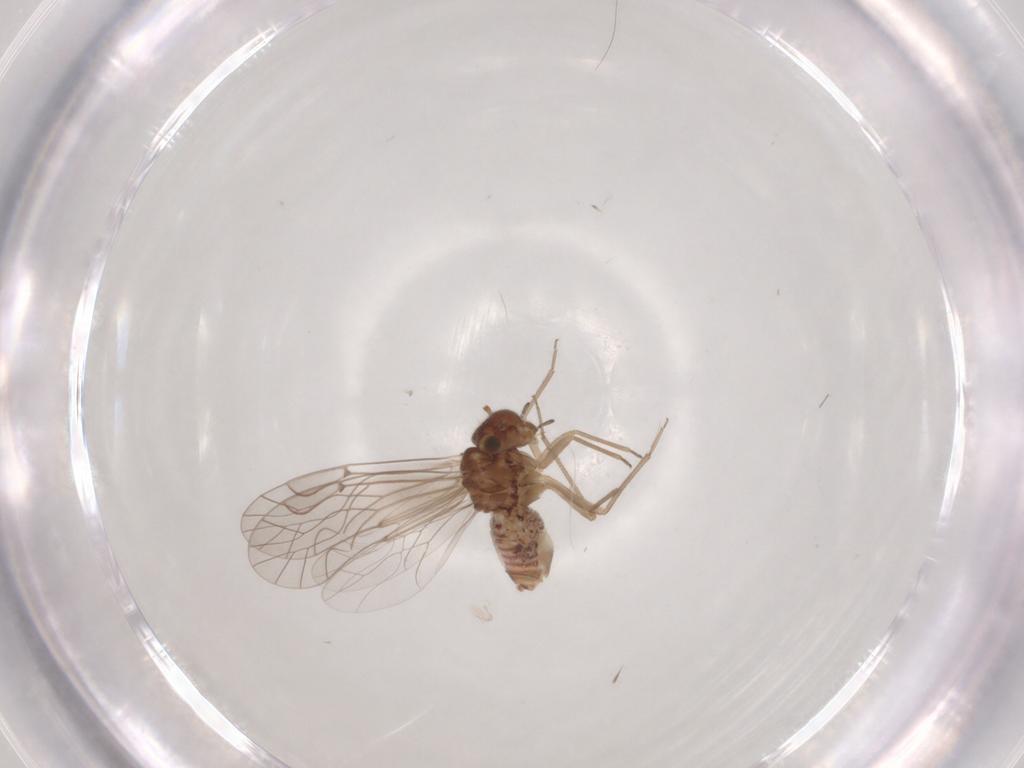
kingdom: Animalia
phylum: Arthropoda
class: Insecta
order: Psocodea
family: Lachesillidae
